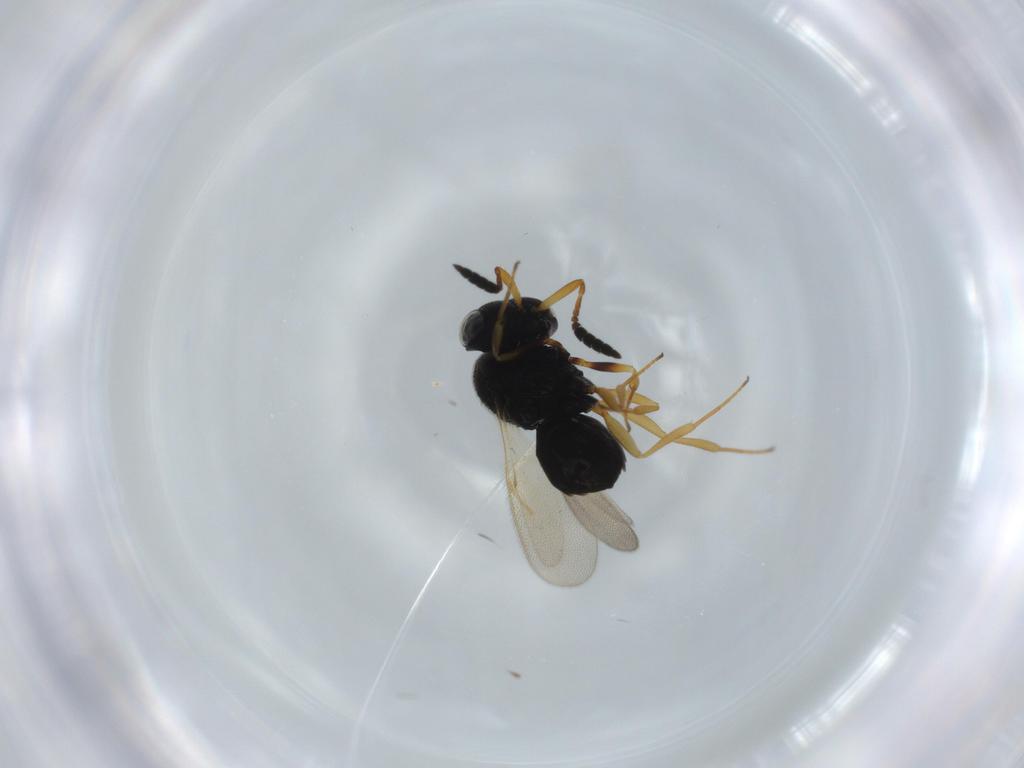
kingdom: Animalia
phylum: Arthropoda
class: Insecta
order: Hymenoptera
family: Scelionidae
